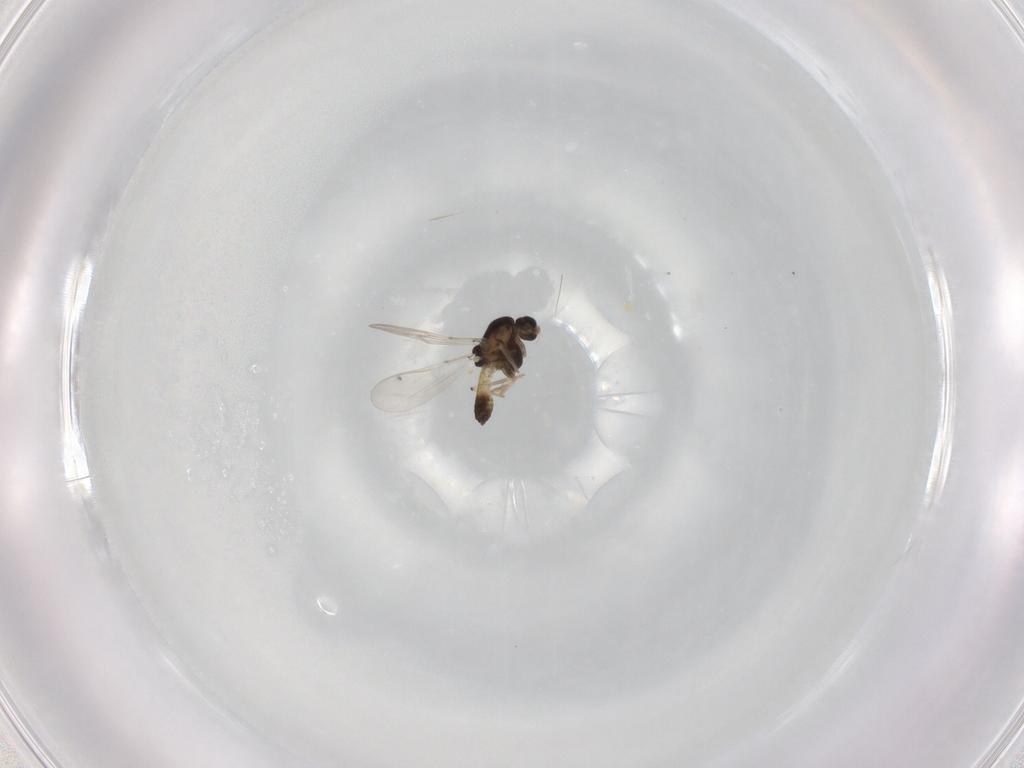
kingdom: Animalia
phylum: Arthropoda
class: Insecta
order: Diptera
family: Chironomidae
